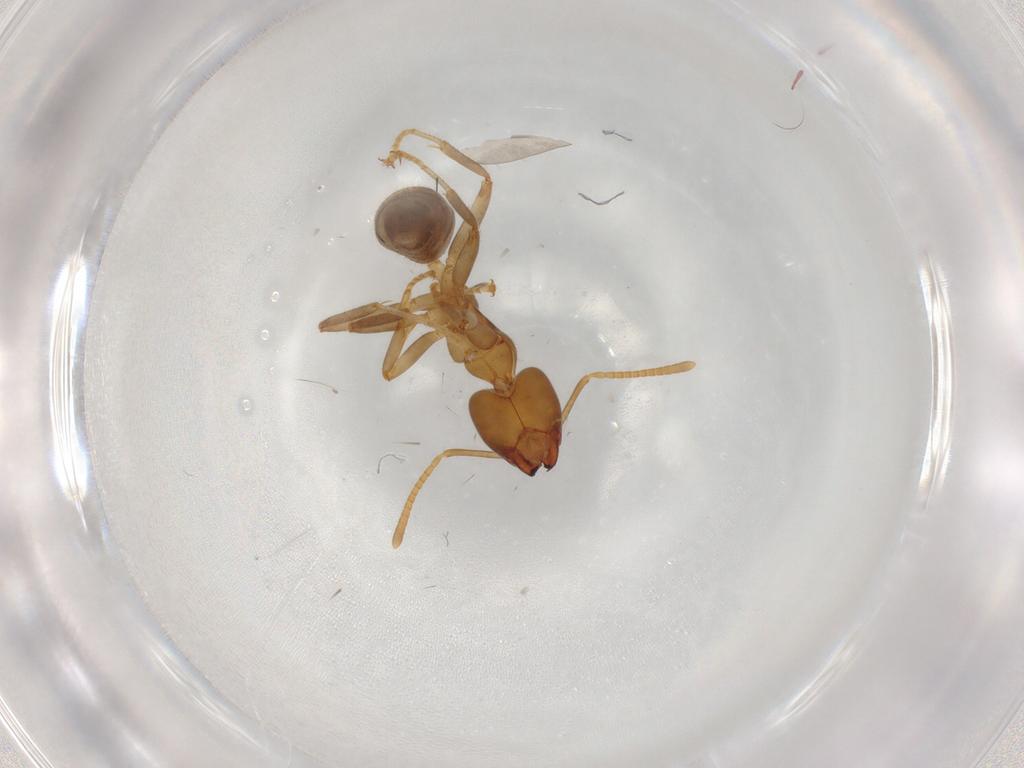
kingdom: Animalia
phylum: Arthropoda
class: Insecta
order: Hymenoptera
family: Formicidae
